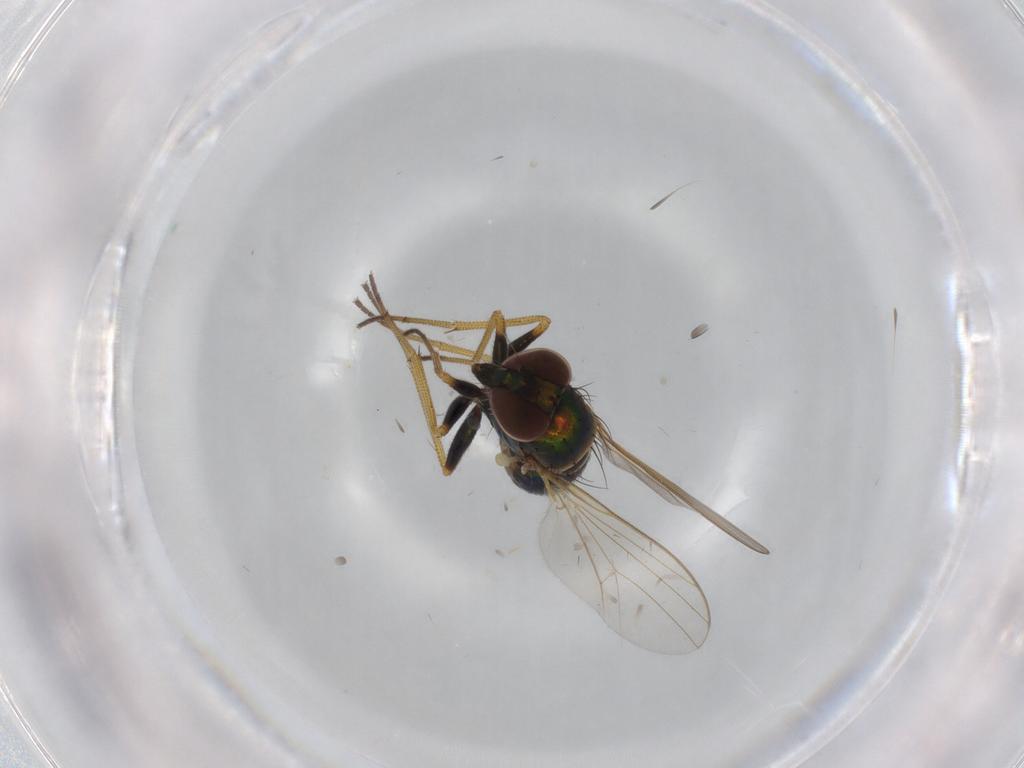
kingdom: Animalia
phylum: Arthropoda
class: Insecta
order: Diptera
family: Dolichopodidae
